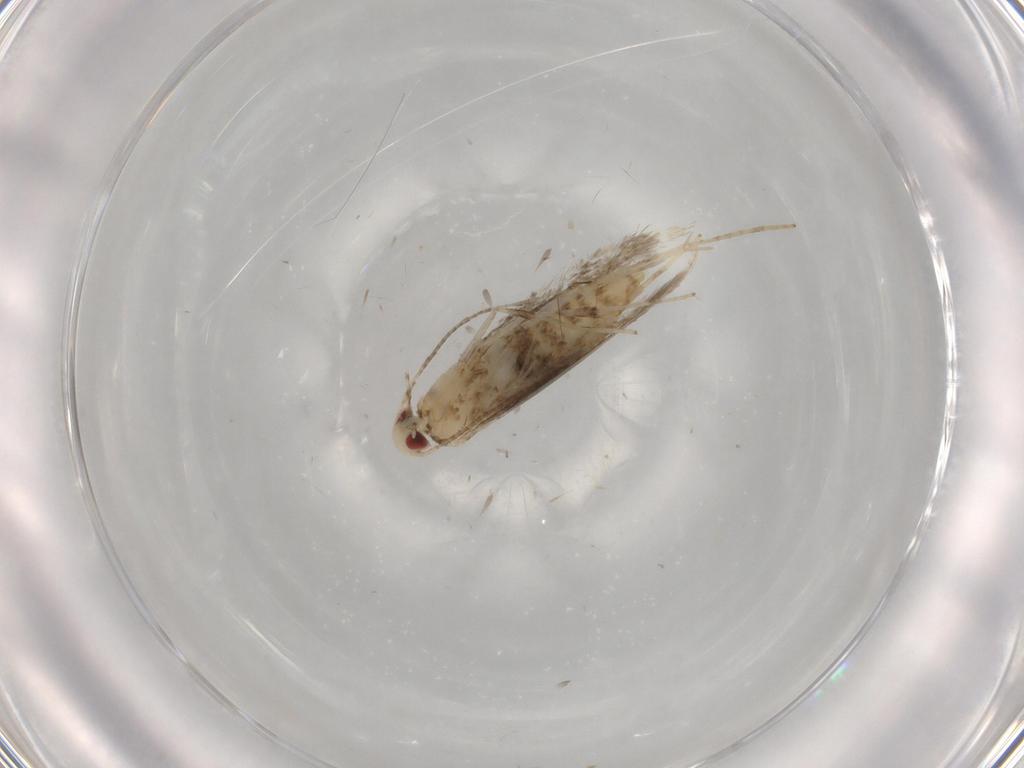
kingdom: Animalia
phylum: Arthropoda
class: Insecta
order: Lepidoptera
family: Gracillariidae
